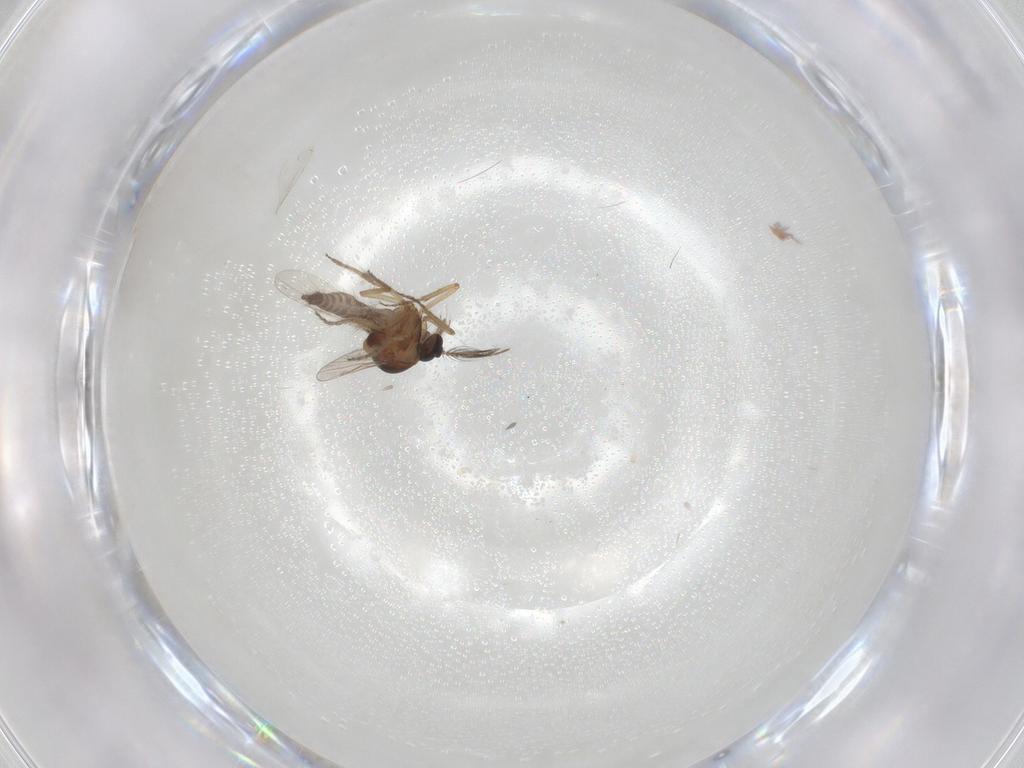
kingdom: Animalia
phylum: Arthropoda
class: Insecta
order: Diptera
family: Cecidomyiidae
